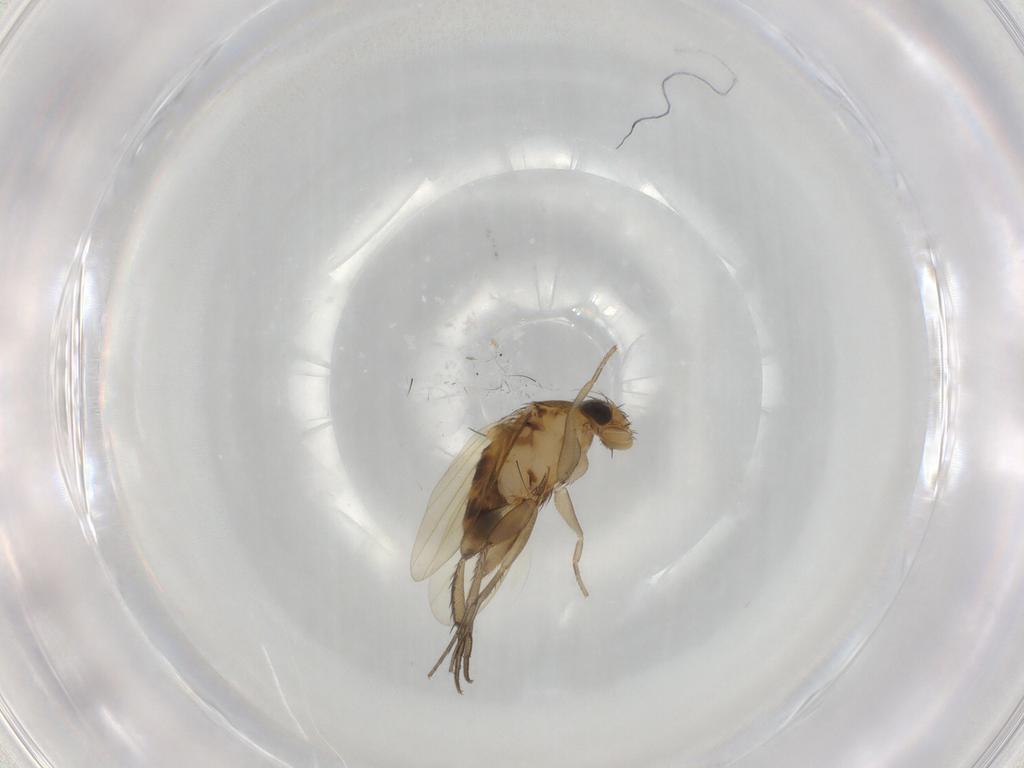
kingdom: Animalia
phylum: Arthropoda
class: Insecta
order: Diptera
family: Phoridae
